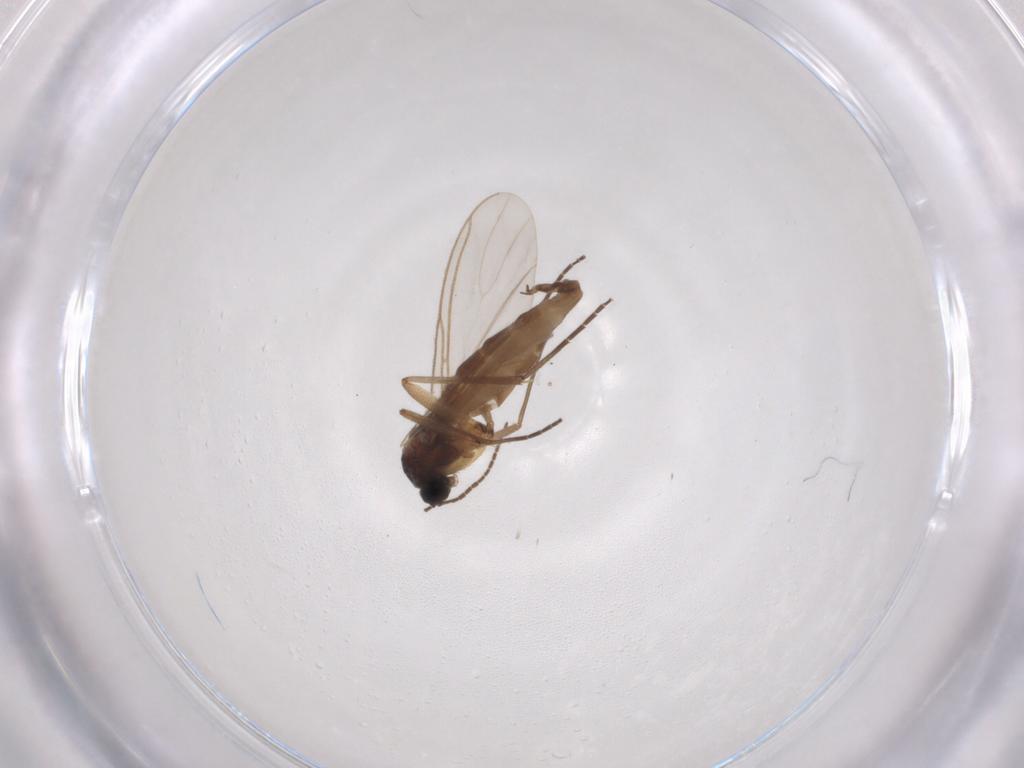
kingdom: Animalia
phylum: Arthropoda
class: Insecta
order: Diptera
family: Sciaridae
